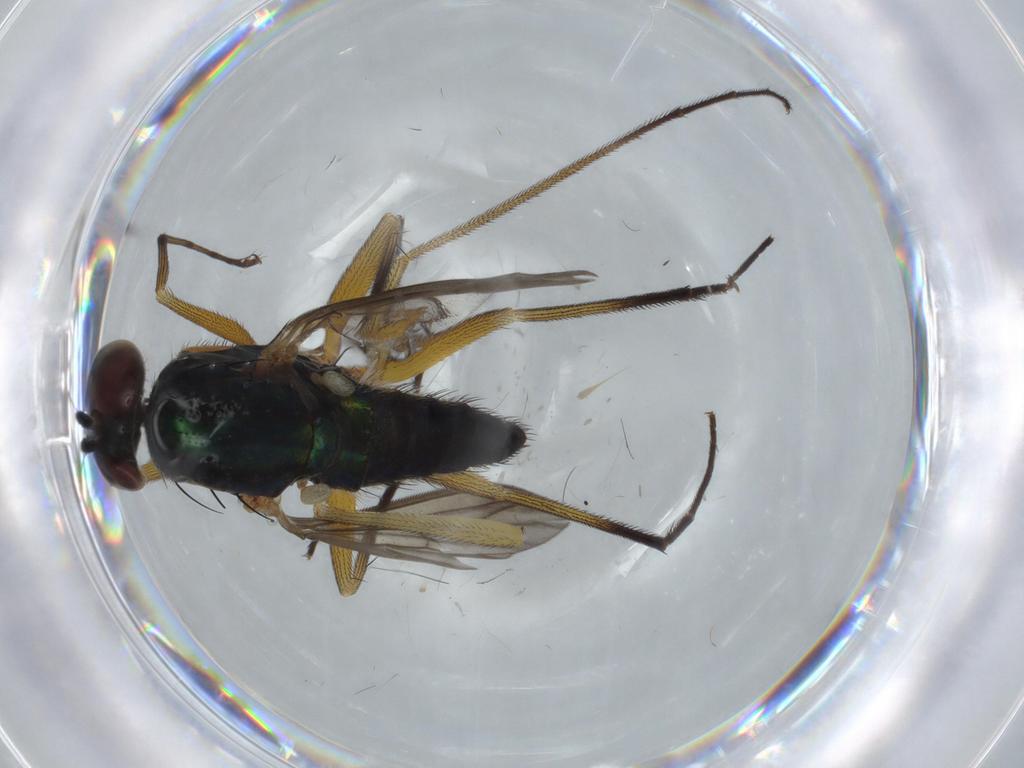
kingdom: Animalia
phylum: Arthropoda
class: Insecta
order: Diptera
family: Dolichopodidae
